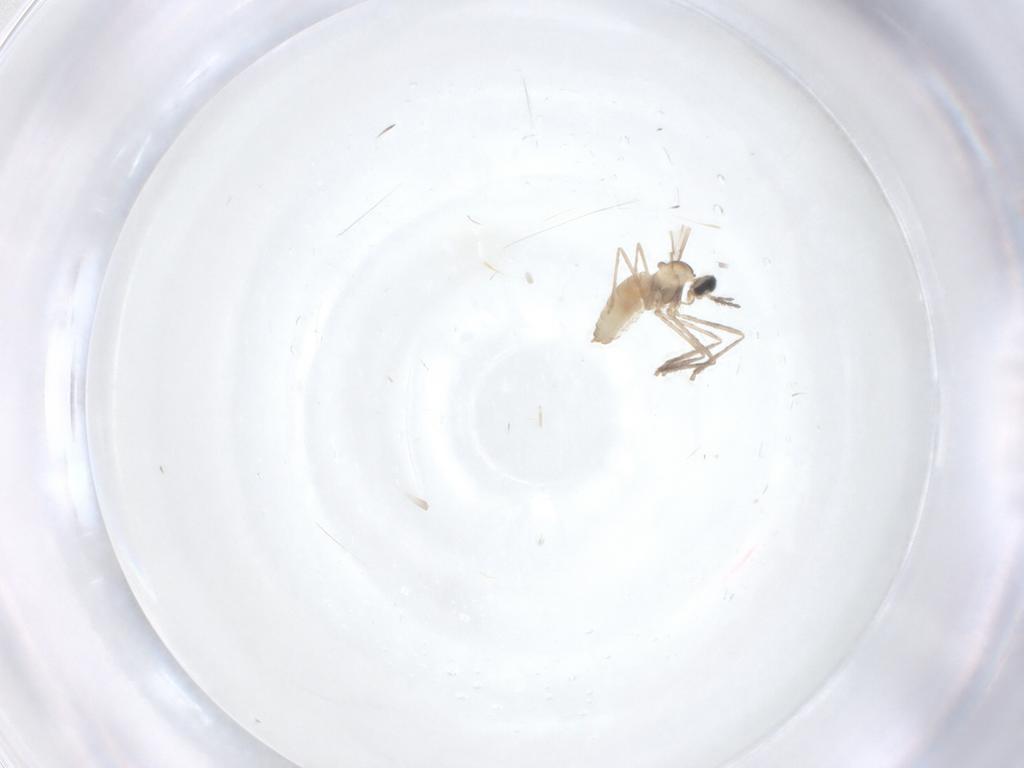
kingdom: Animalia
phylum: Arthropoda
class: Insecta
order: Diptera
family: Cecidomyiidae
